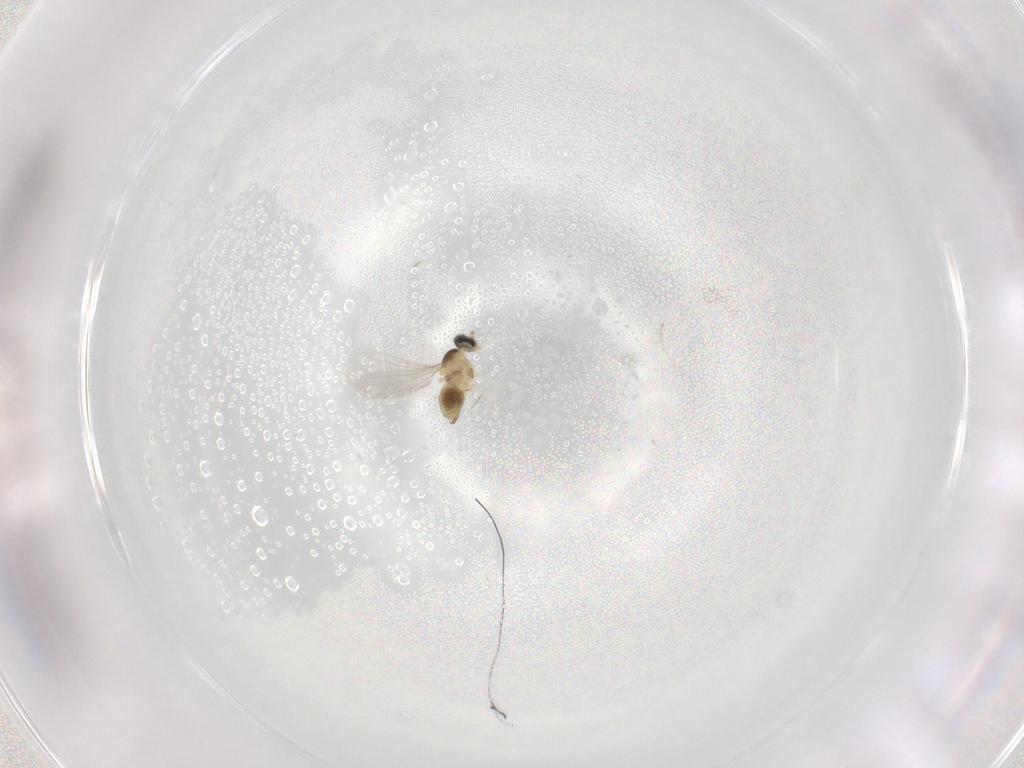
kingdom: Animalia
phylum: Arthropoda
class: Insecta
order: Diptera
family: Cecidomyiidae
